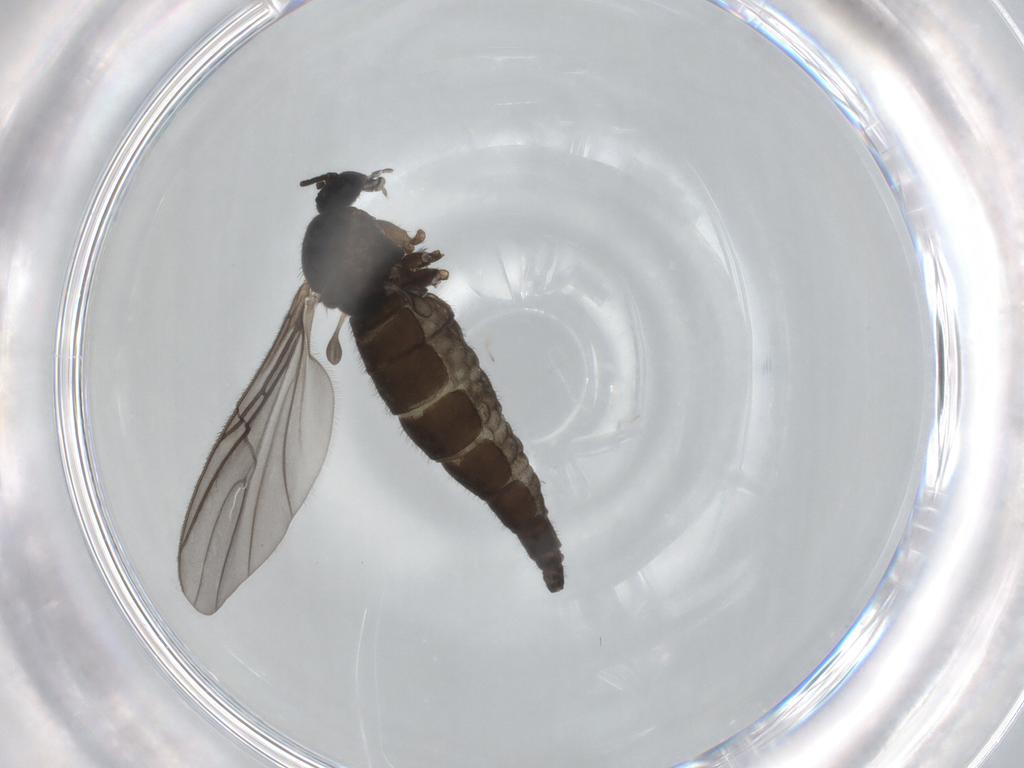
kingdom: Animalia
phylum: Arthropoda
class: Insecta
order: Diptera
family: Sciaridae
